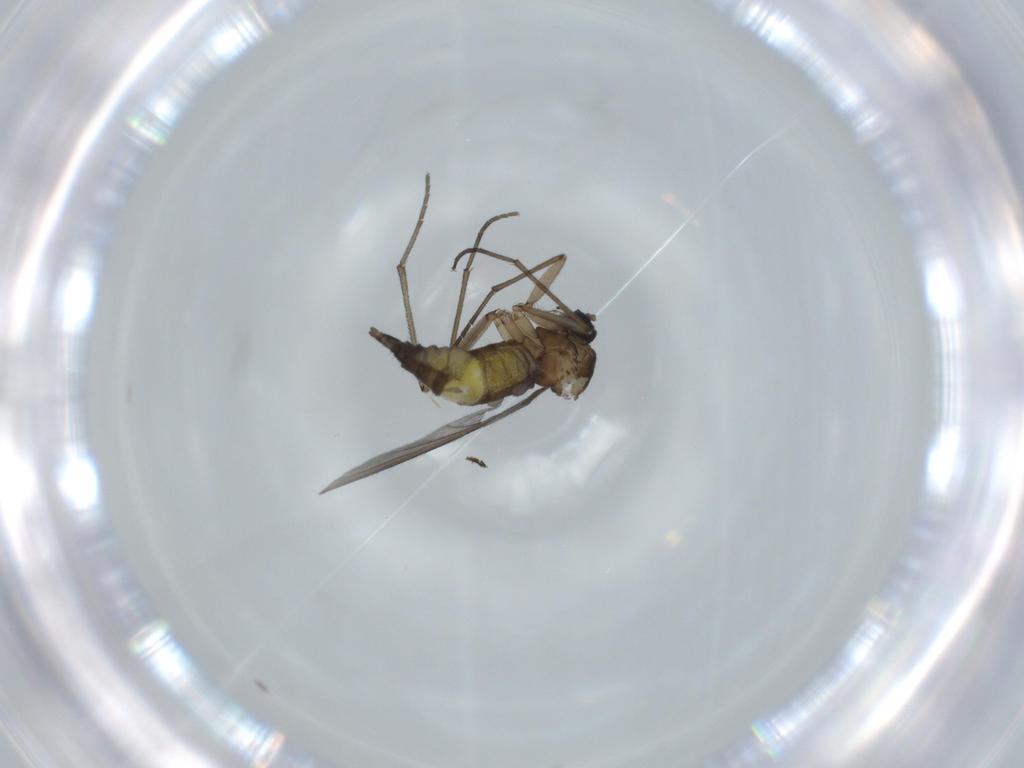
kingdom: Animalia
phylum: Arthropoda
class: Insecta
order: Diptera
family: Sciaridae
